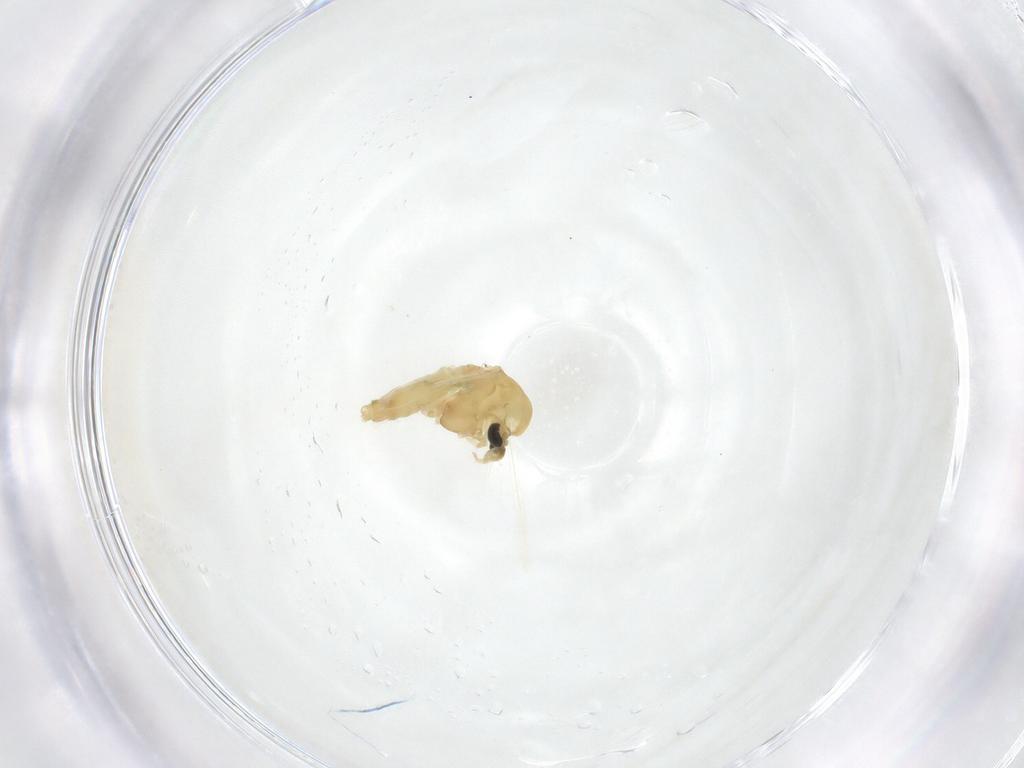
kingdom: Animalia
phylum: Arthropoda
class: Insecta
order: Diptera
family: Chironomidae
